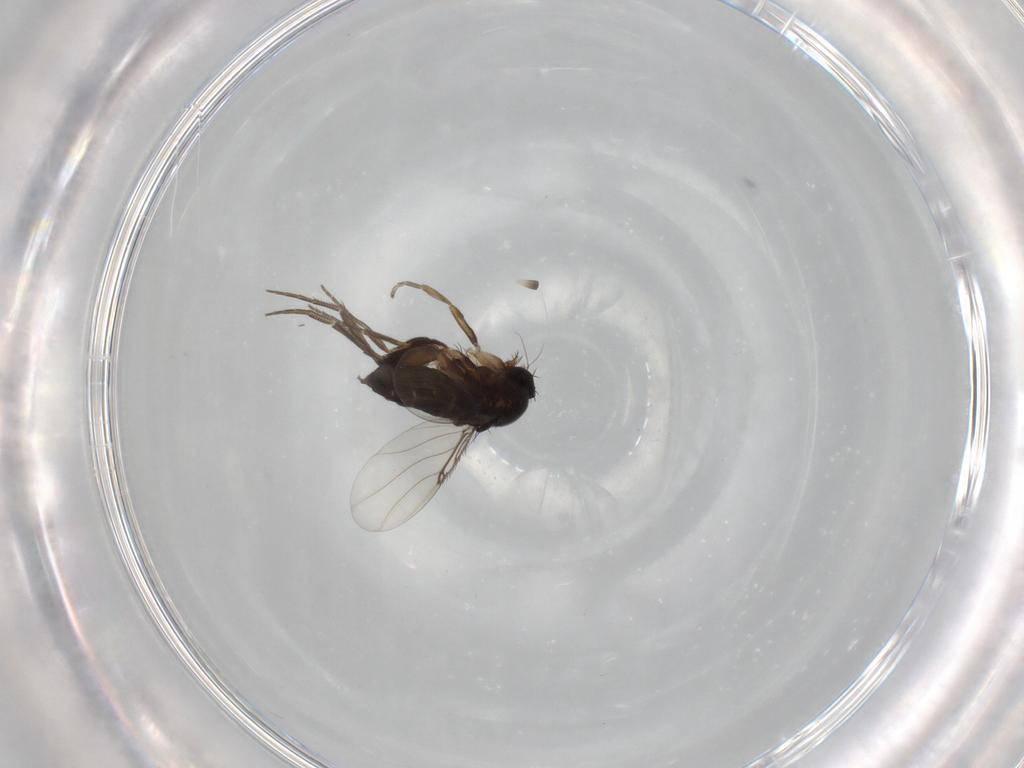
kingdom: Animalia
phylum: Arthropoda
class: Insecta
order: Diptera
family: Phoridae
